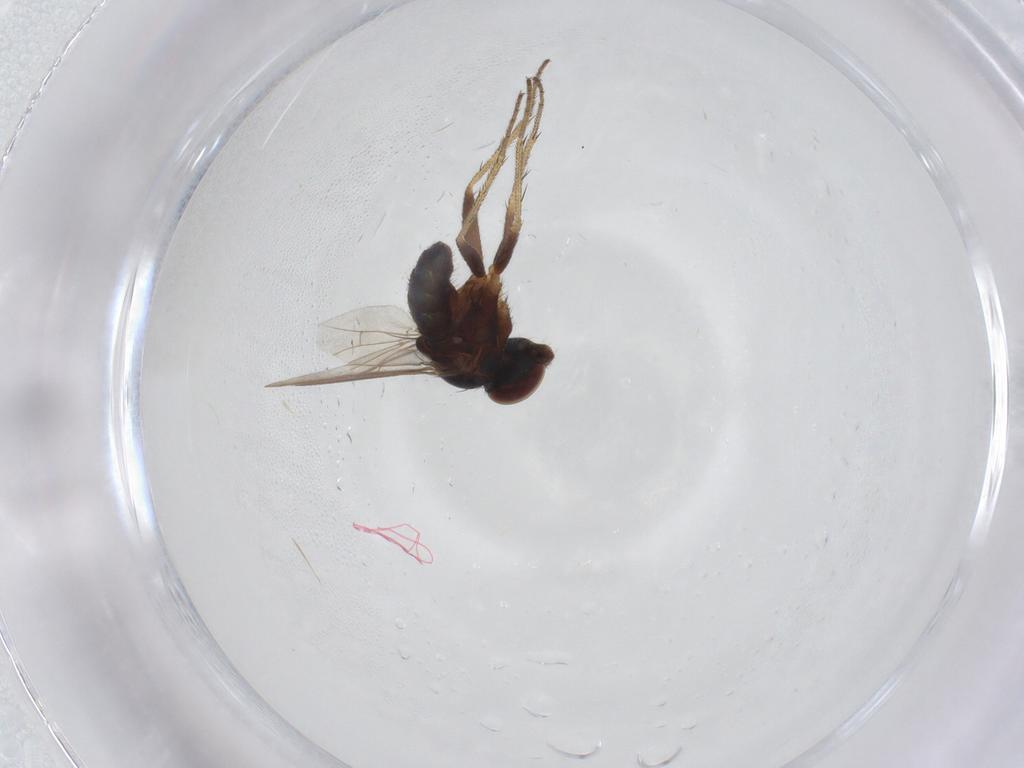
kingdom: Animalia
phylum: Arthropoda
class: Insecta
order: Diptera
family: Ceratopogonidae
